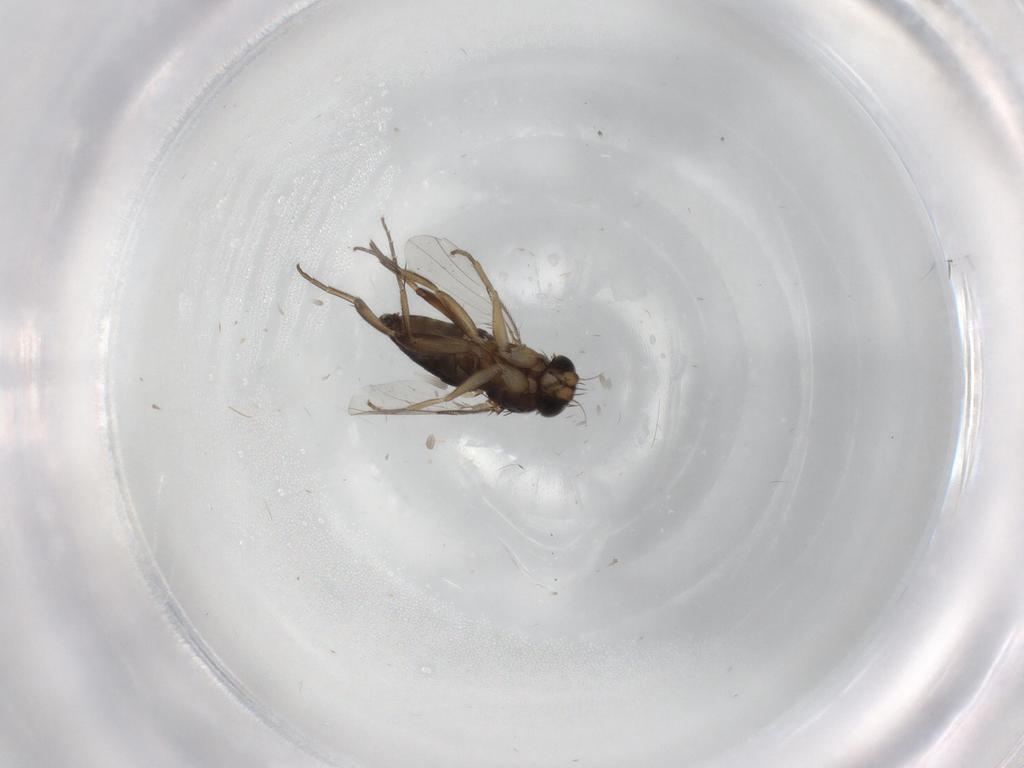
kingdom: Animalia
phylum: Arthropoda
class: Insecta
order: Diptera
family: Phoridae
